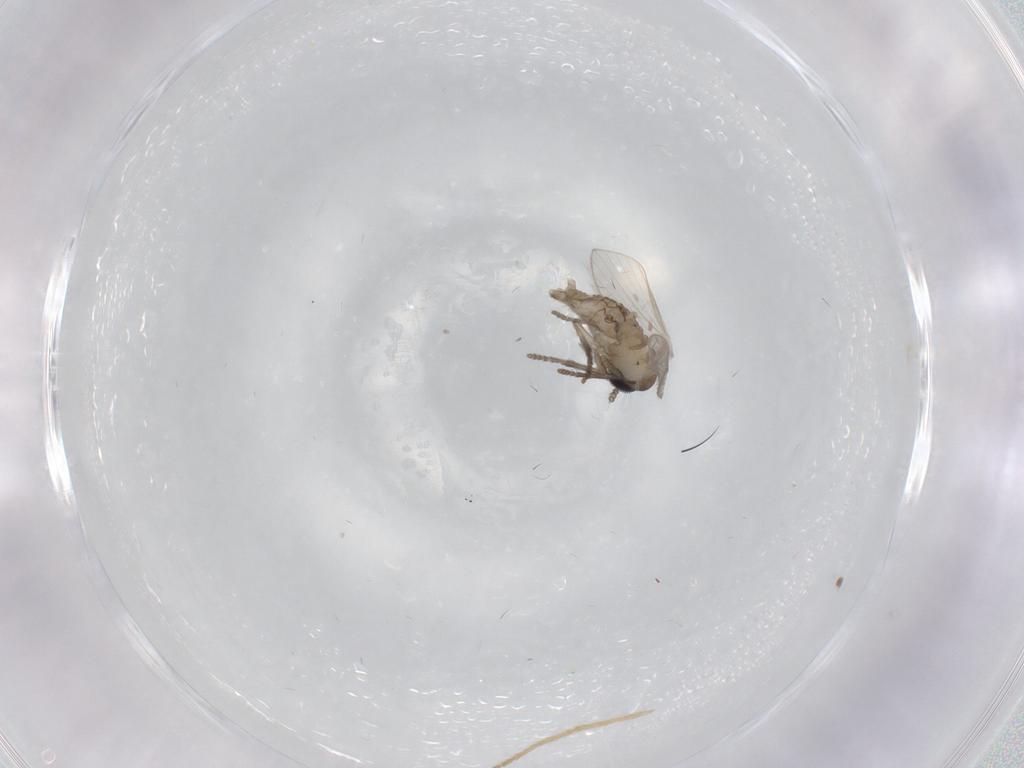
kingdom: Animalia
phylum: Arthropoda
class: Insecta
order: Diptera
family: Psychodidae
